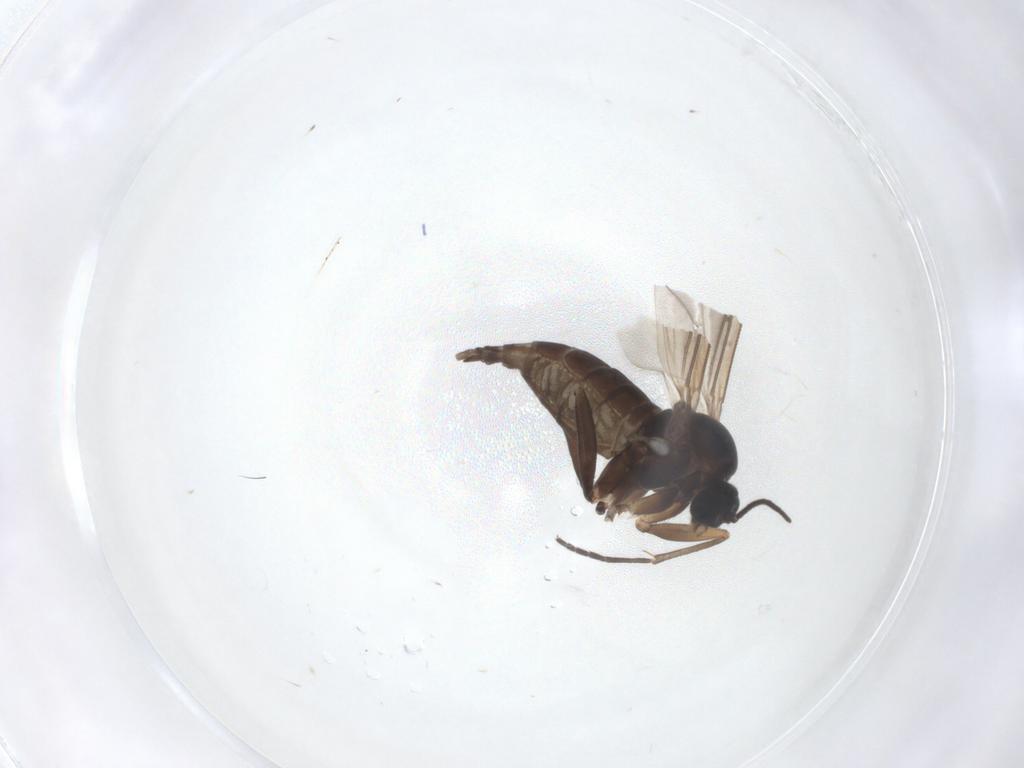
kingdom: Animalia
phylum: Arthropoda
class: Insecta
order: Diptera
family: Sciaridae
